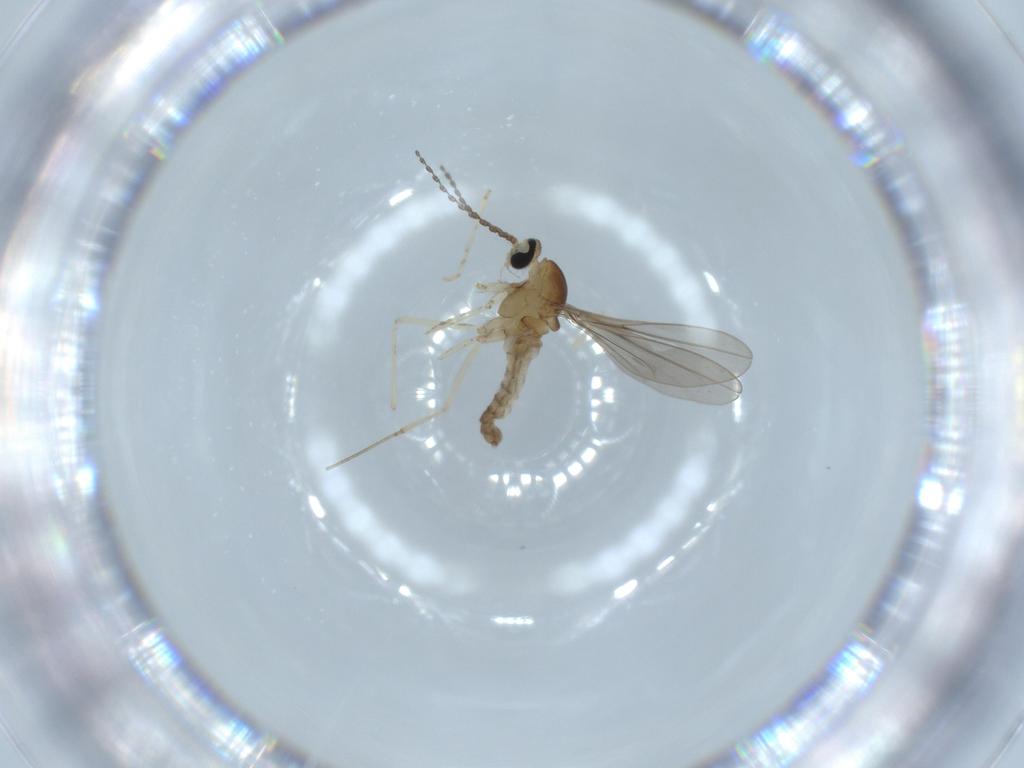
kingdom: Animalia
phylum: Arthropoda
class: Insecta
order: Diptera
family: Cecidomyiidae
